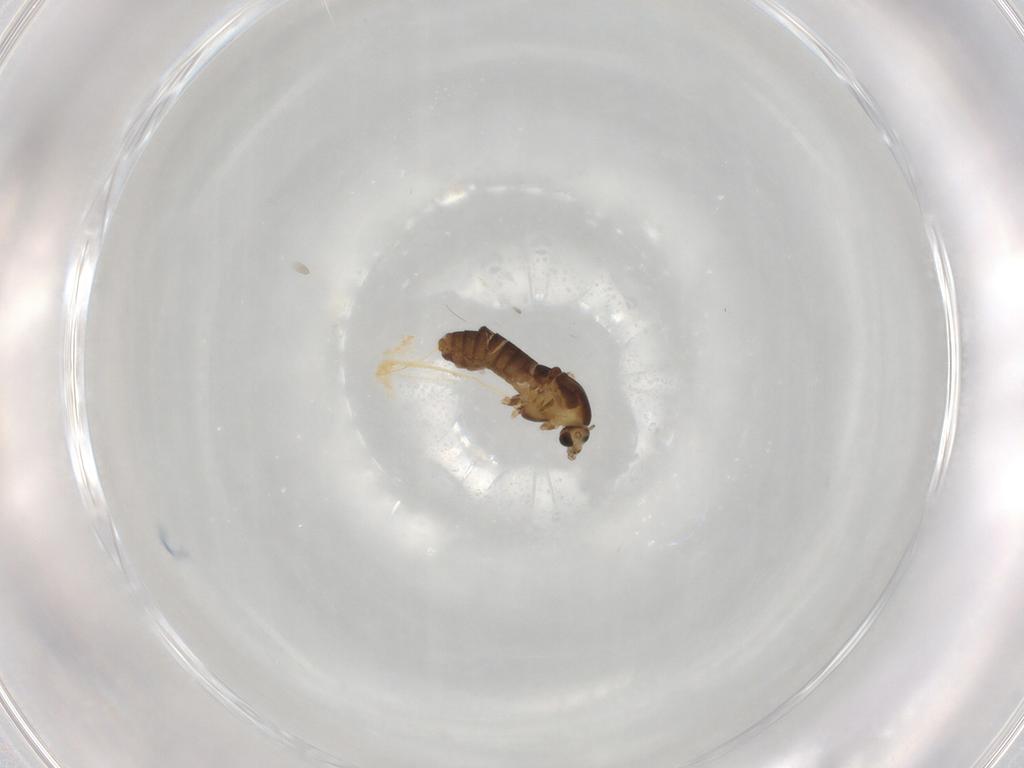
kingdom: Animalia
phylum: Arthropoda
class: Insecta
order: Diptera
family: Chironomidae
